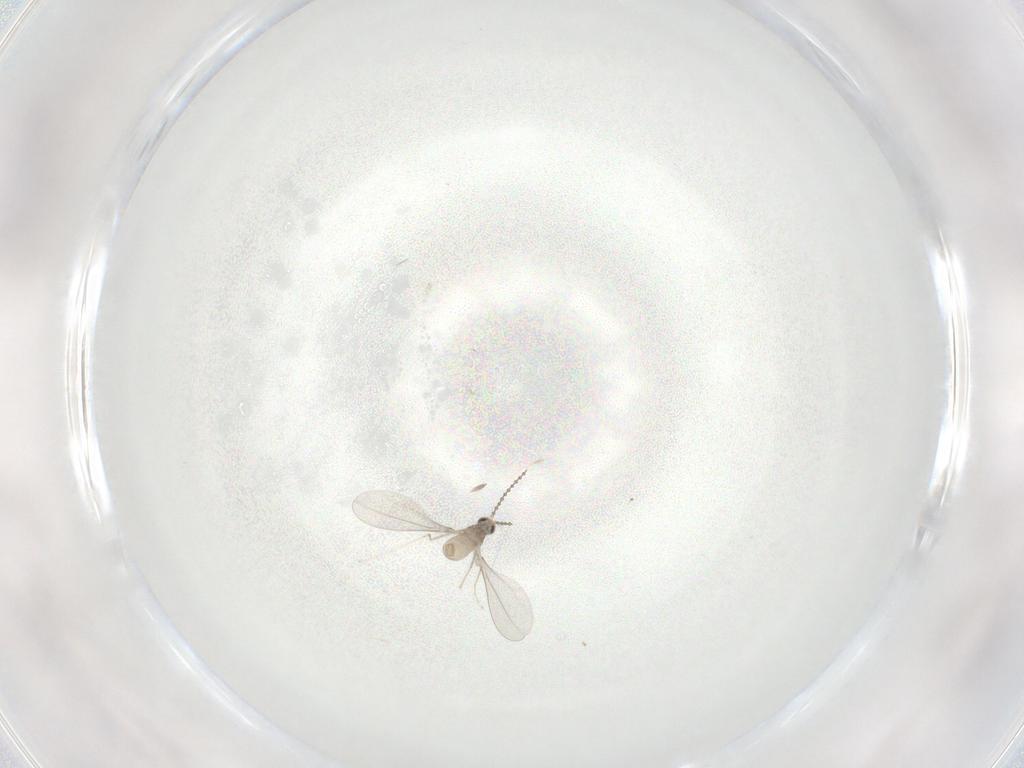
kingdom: Animalia
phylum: Arthropoda
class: Insecta
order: Diptera
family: Cecidomyiidae
